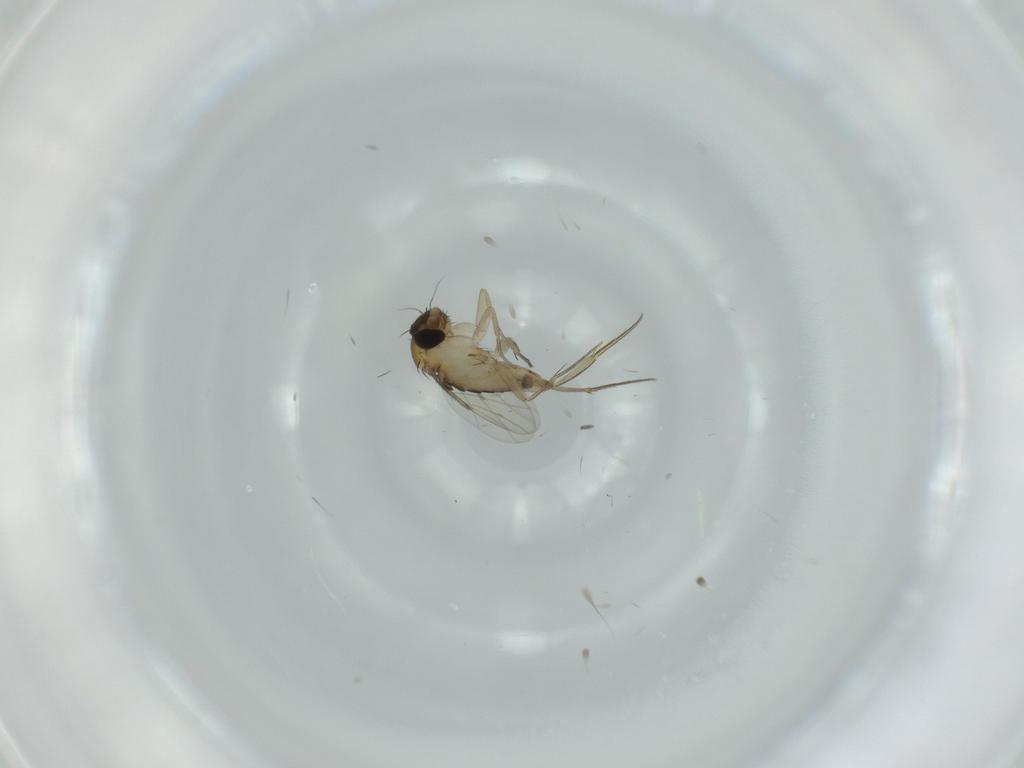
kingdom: Animalia
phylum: Arthropoda
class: Insecta
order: Diptera
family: Phoridae
